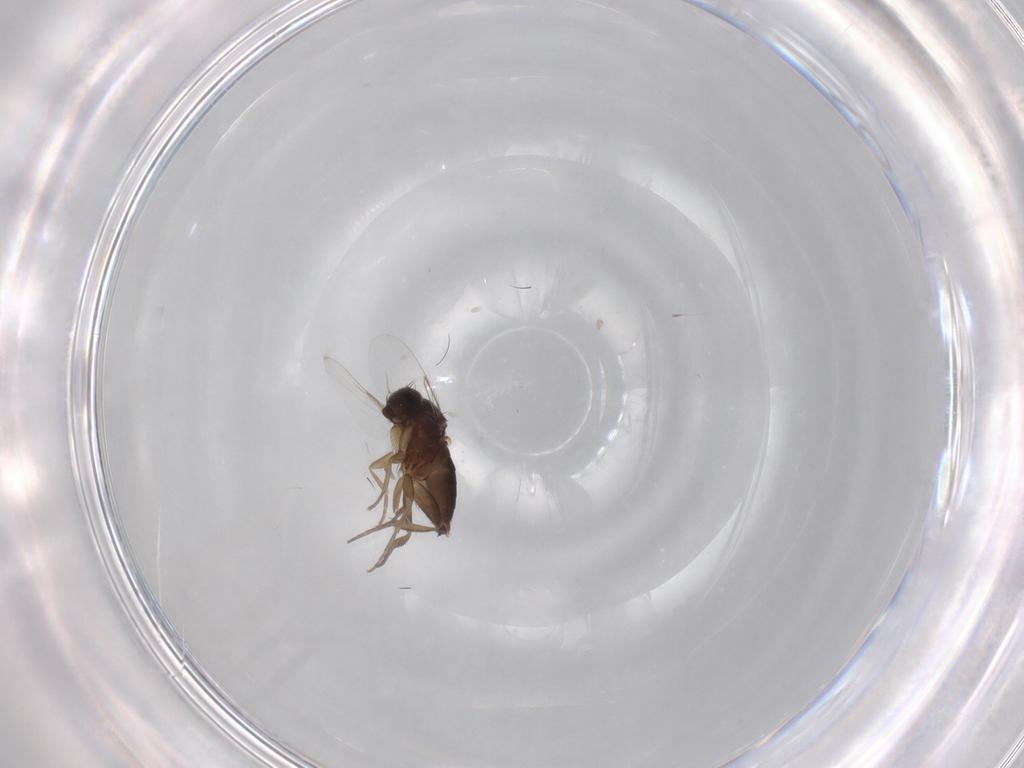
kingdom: Animalia
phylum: Arthropoda
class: Insecta
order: Diptera
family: Phoridae
